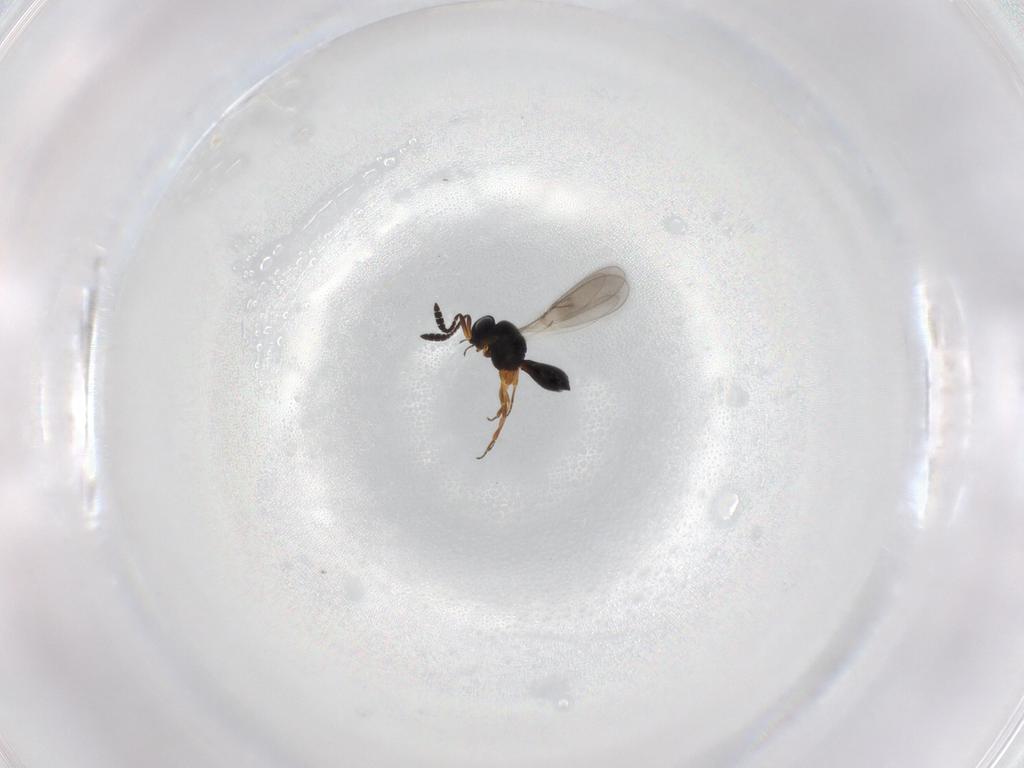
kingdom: Animalia
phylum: Arthropoda
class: Insecta
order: Hymenoptera
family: Scelionidae
